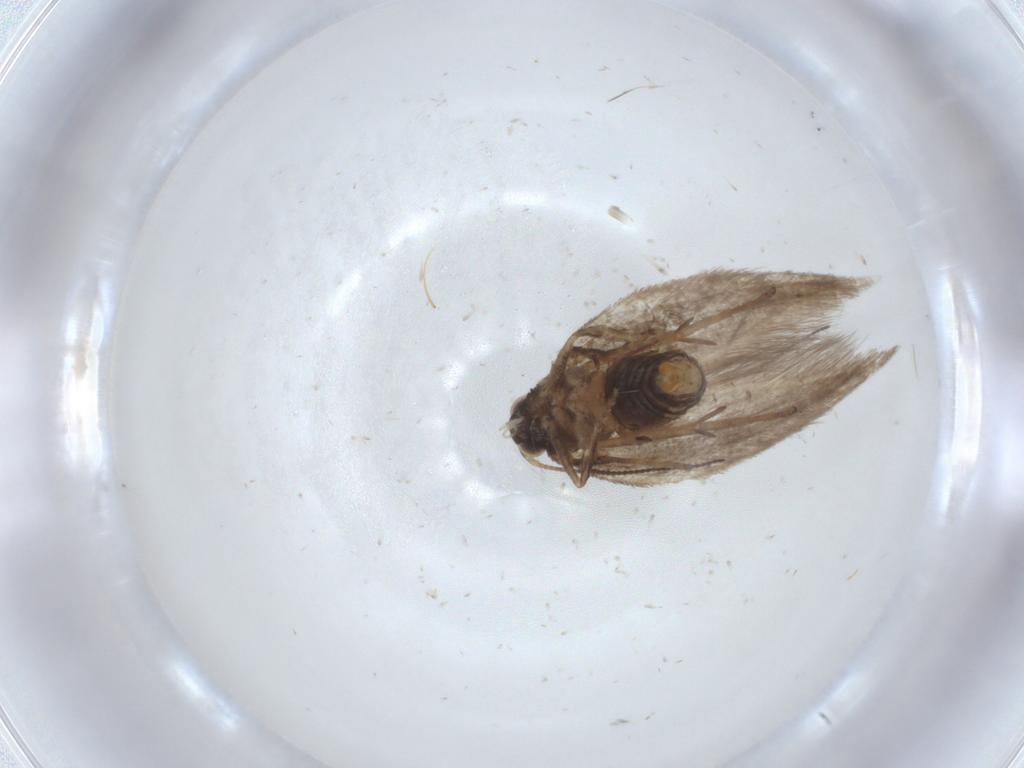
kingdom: Animalia
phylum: Arthropoda
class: Insecta
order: Lepidoptera
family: Nepticulidae
